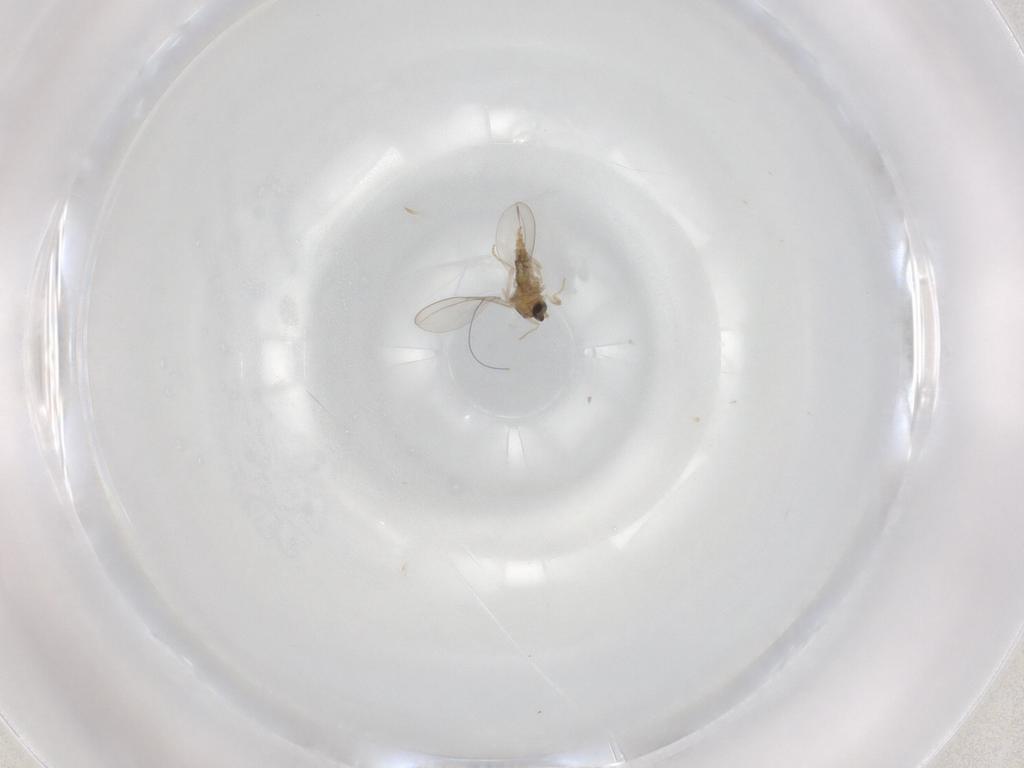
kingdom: Animalia
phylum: Arthropoda
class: Insecta
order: Diptera
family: Cecidomyiidae
